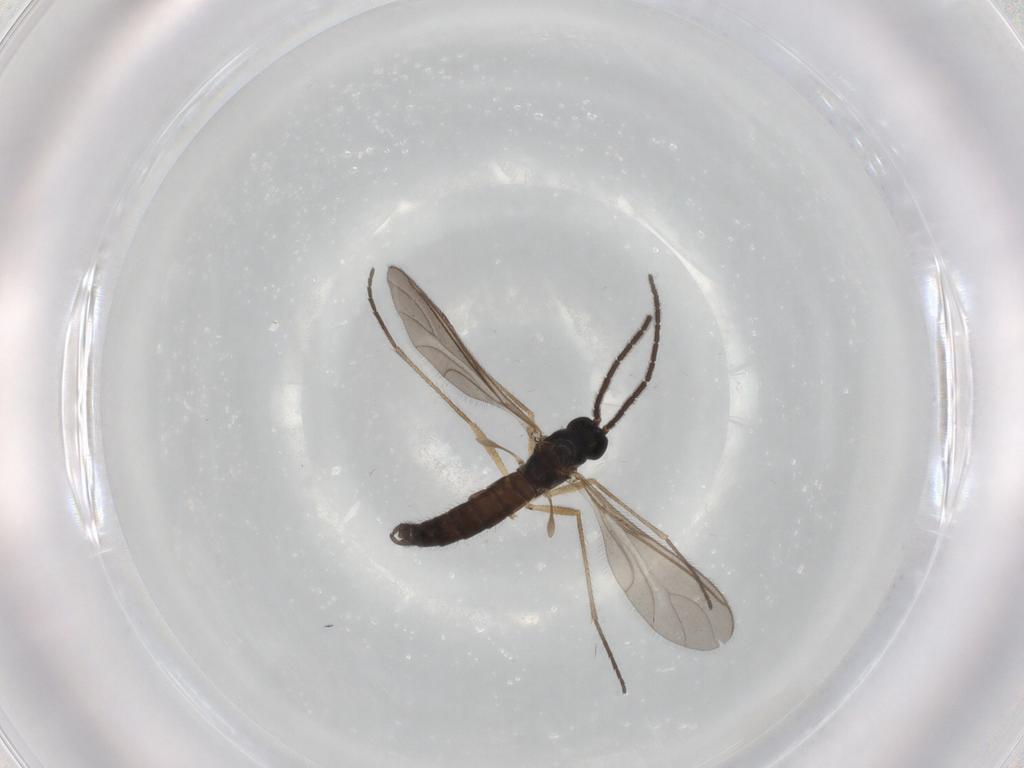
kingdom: Animalia
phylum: Arthropoda
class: Insecta
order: Diptera
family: Sciaridae
